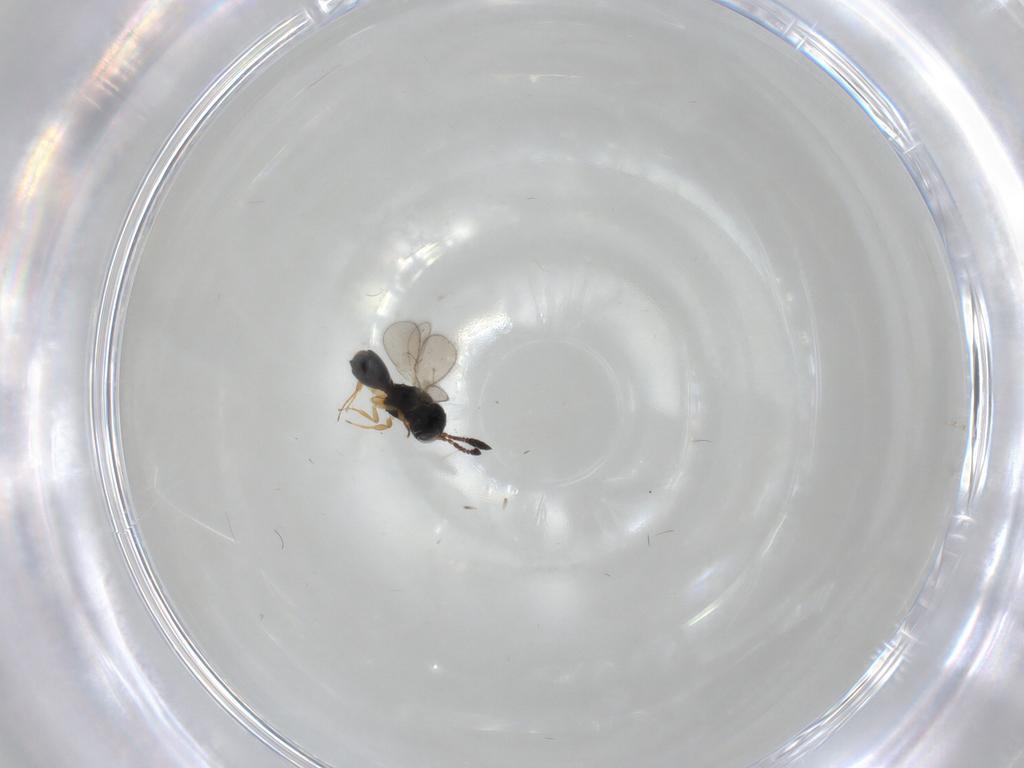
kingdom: Animalia
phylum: Arthropoda
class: Insecta
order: Hymenoptera
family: Scelionidae
